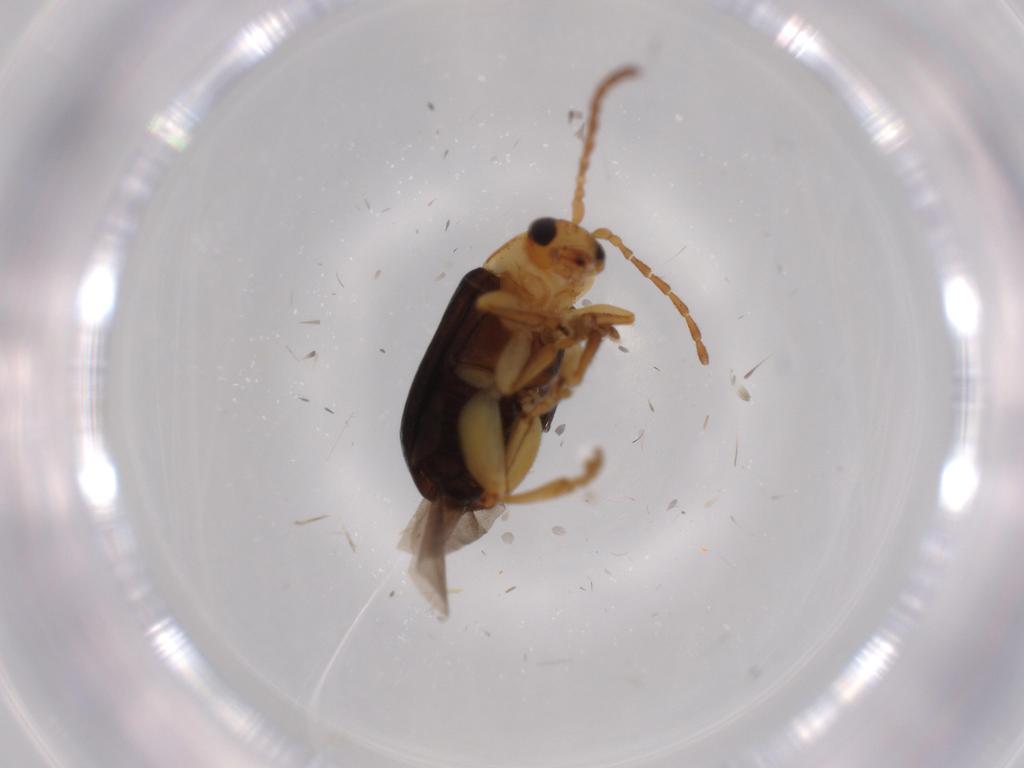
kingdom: Animalia
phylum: Arthropoda
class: Insecta
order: Coleoptera
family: Chrysomelidae
